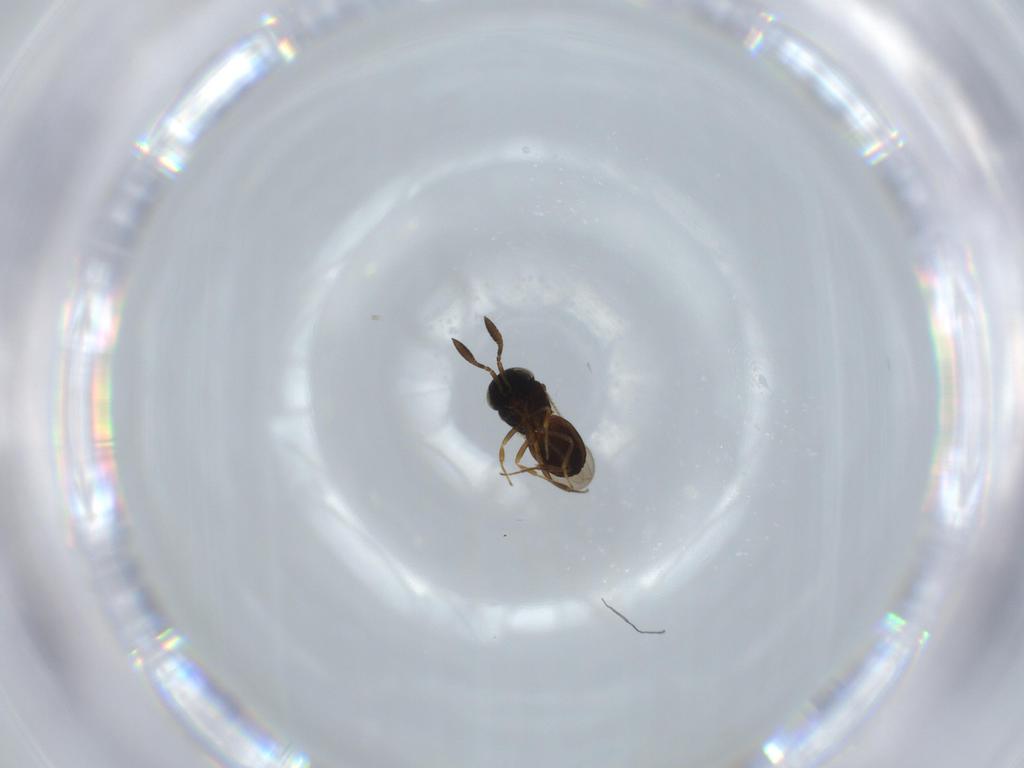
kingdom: Animalia
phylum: Arthropoda
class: Insecta
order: Coleoptera
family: Curculionidae
